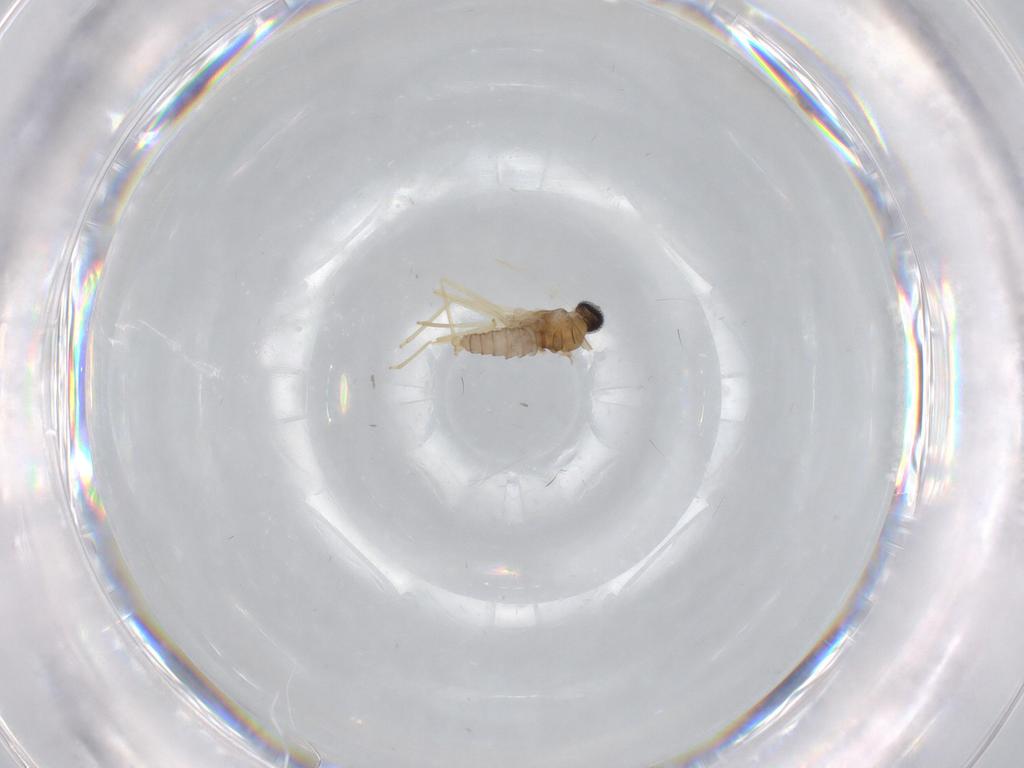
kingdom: Animalia
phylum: Arthropoda
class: Insecta
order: Diptera
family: Cecidomyiidae
